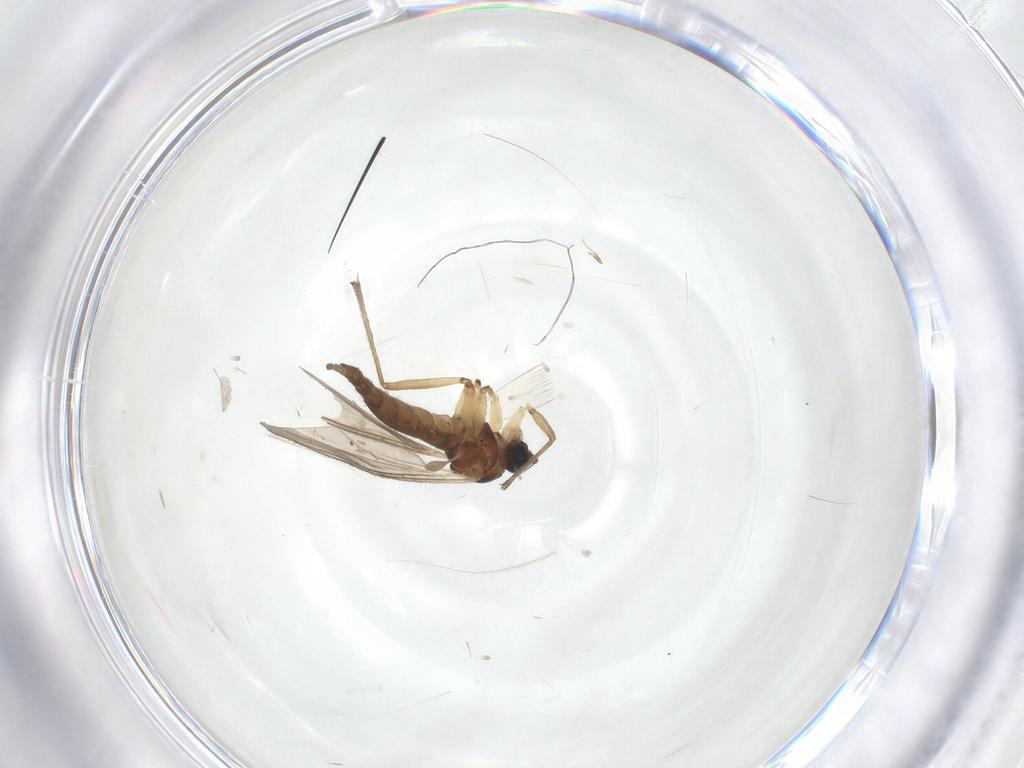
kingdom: Animalia
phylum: Arthropoda
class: Insecta
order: Diptera
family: Sciaridae
